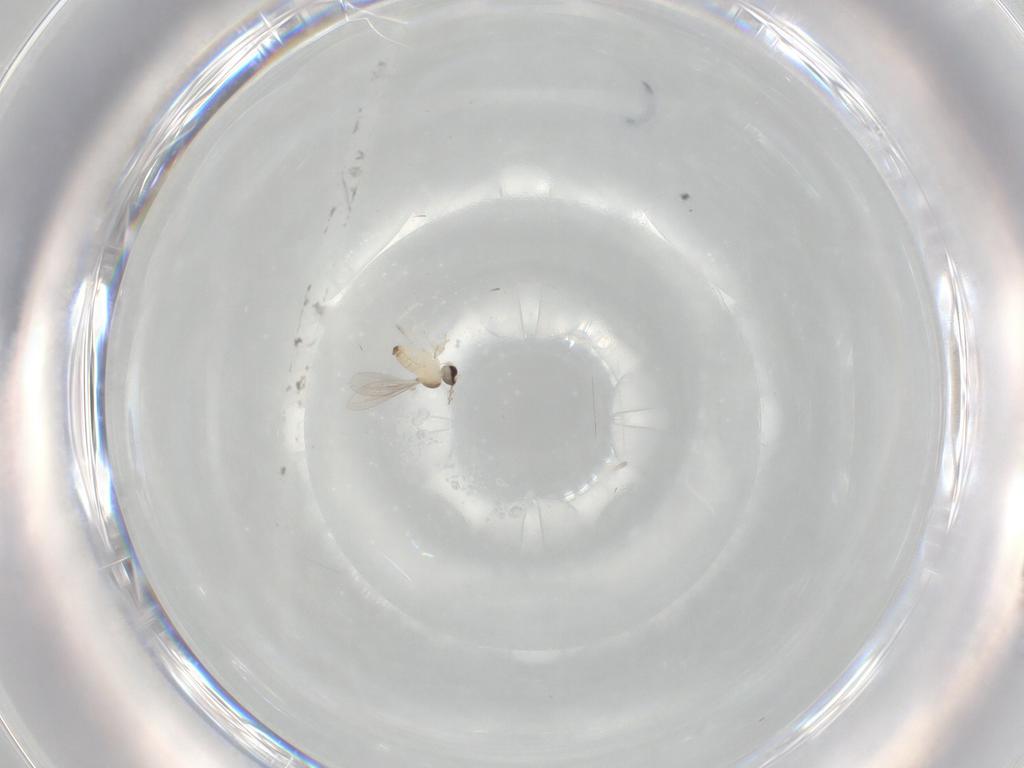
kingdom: Animalia
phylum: Arthropoda
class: Insecta
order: Diptera
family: Cecidomyiidae
